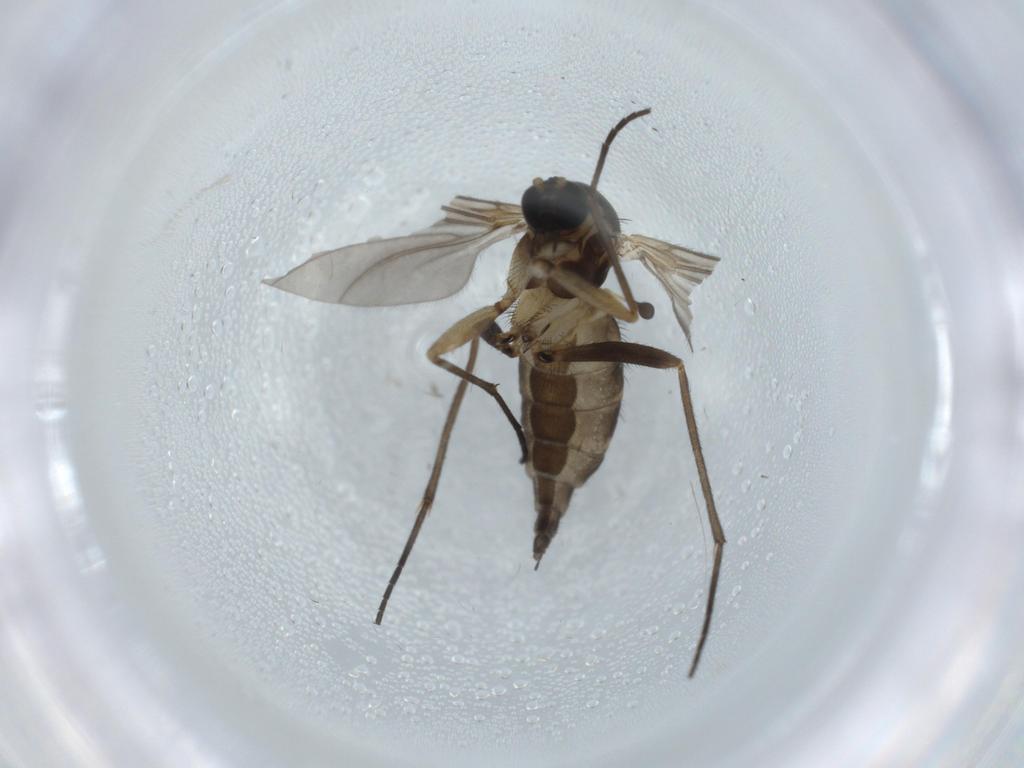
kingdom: Animalia
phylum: Arthropoda
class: Insecta
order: Diptera
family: Sciaridae
